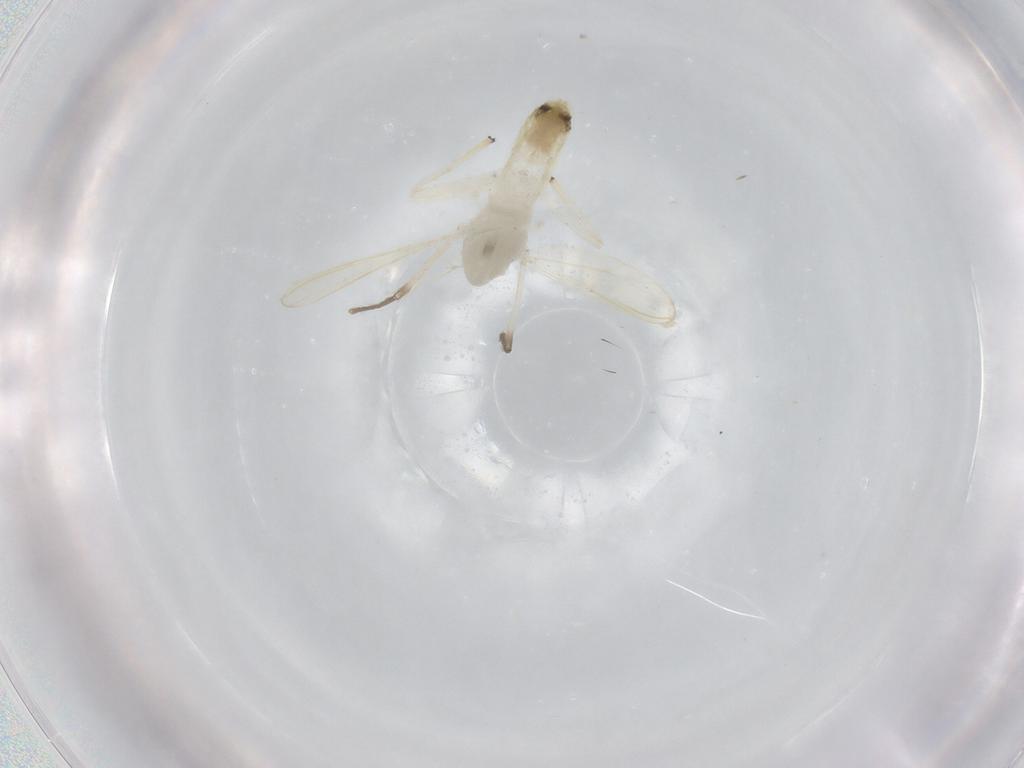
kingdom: Animalia
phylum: Arthropoda
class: Insecta
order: Diptera
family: Chironomidae
